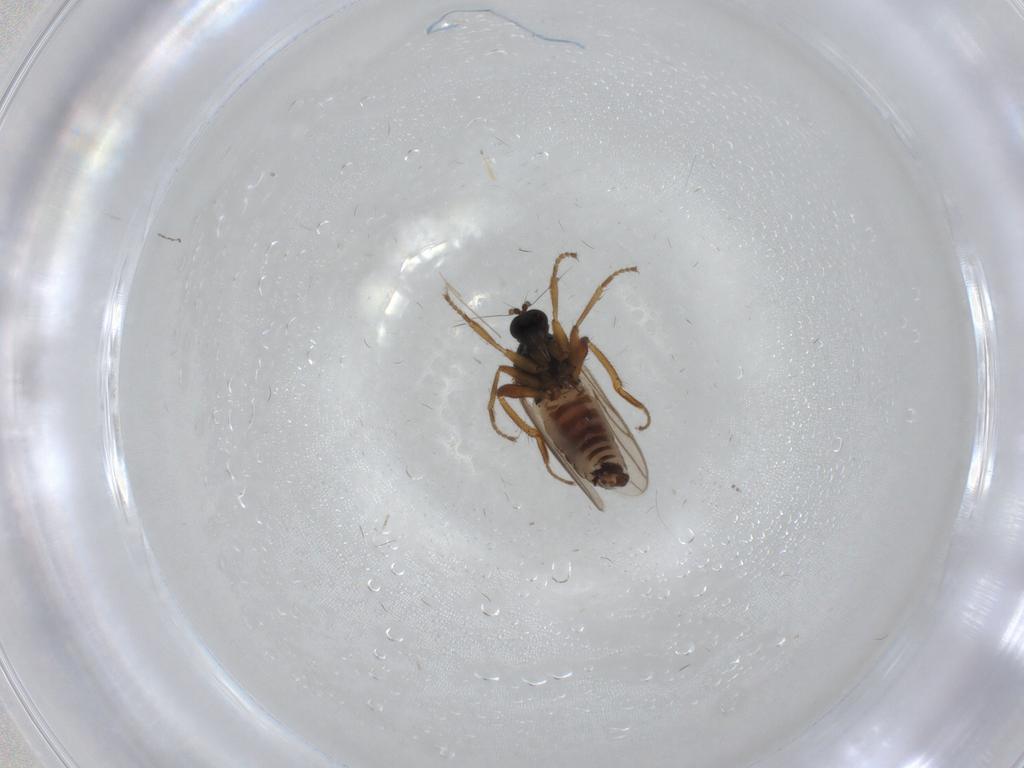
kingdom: Animalia
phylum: Arthropoda
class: Insecta
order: Diptera
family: Hybotidae
